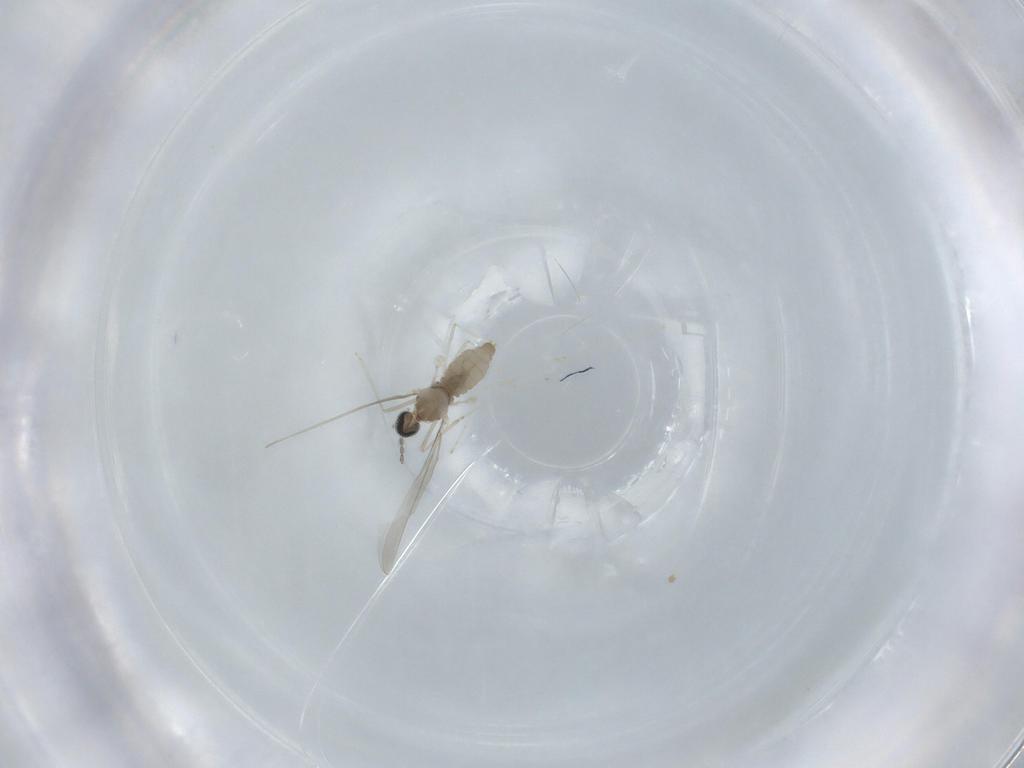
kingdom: Animalia
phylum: Arthropoda
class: Insecta
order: Diptera
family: Cecidomyiidae
